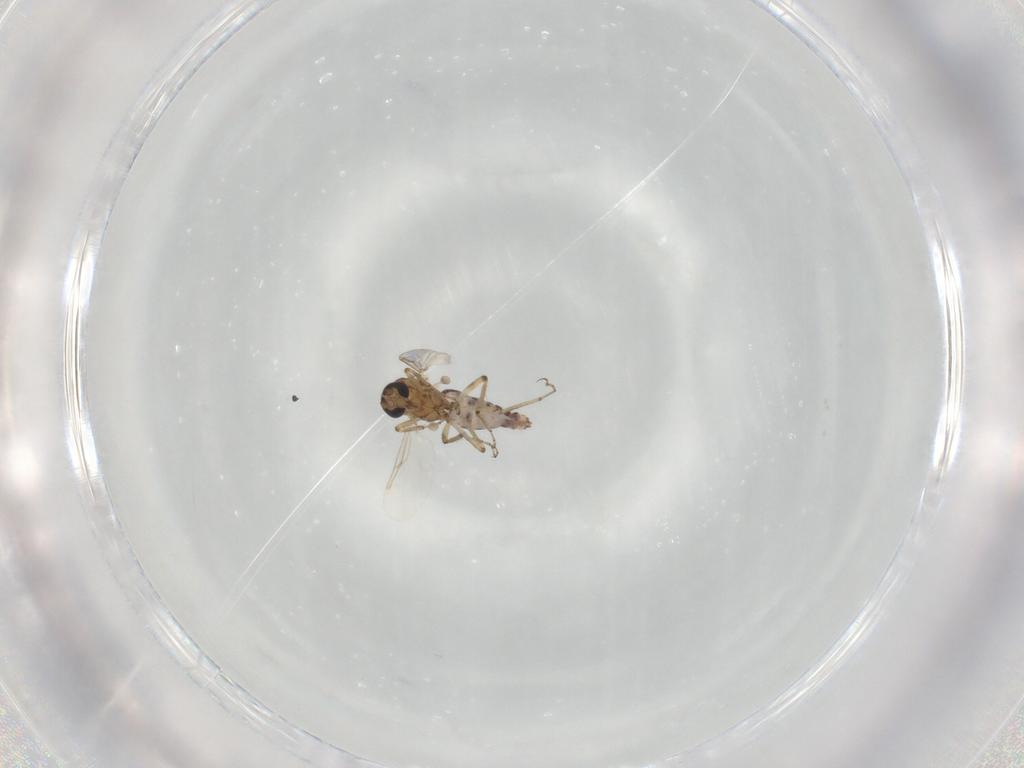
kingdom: Animalia
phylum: Arthropoda
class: Insecta
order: Diptera
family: Ceratopogonidae
